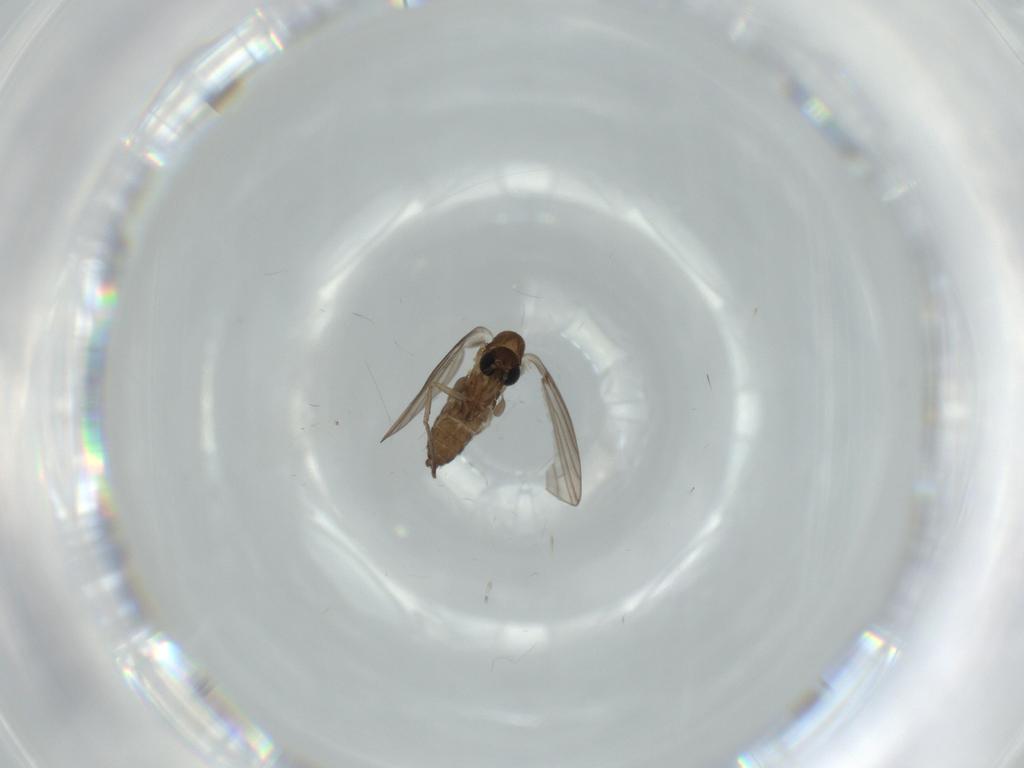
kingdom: Animalia
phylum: Arthropoda
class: Insecta
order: Diptera
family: Psychodidae
